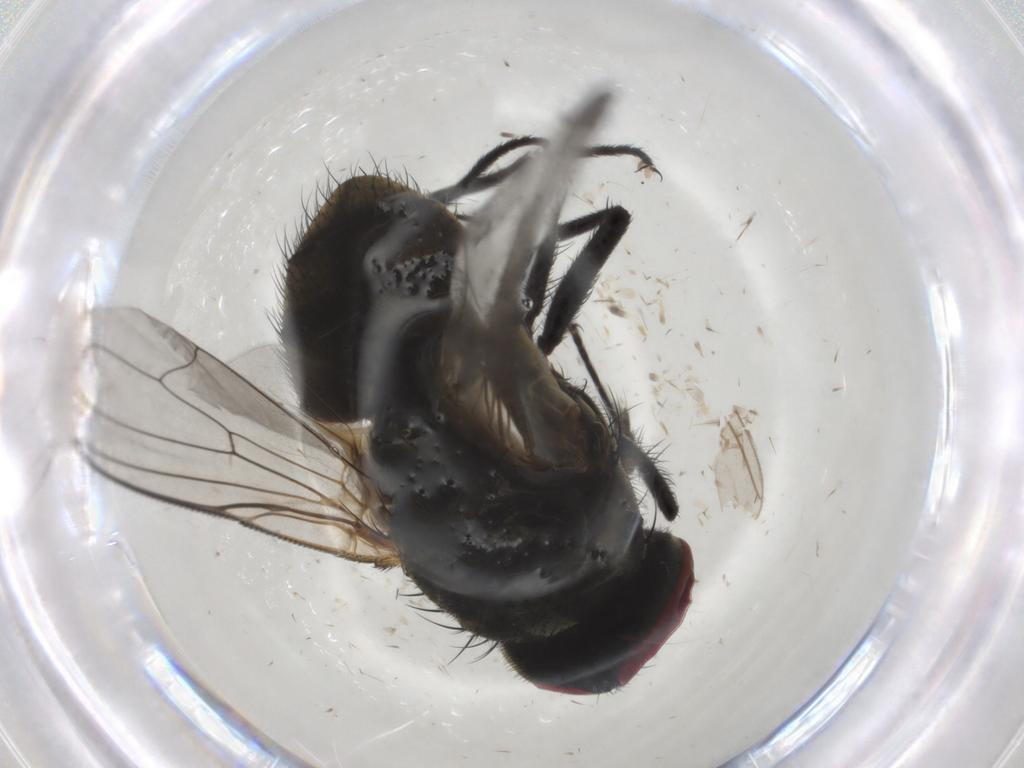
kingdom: Animalia
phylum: Arthropoda
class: Insecta
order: Diptera
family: Muscidae
